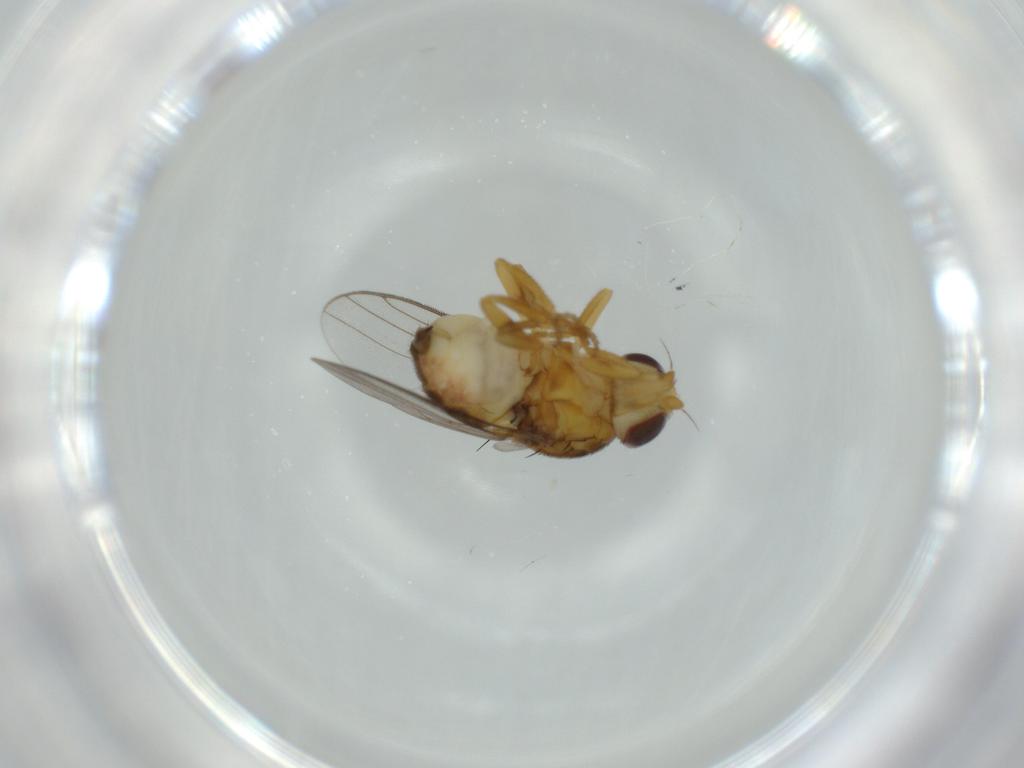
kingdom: Animalia
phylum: Arthropoda
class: Insecta
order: Diptera
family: Chloropidae
